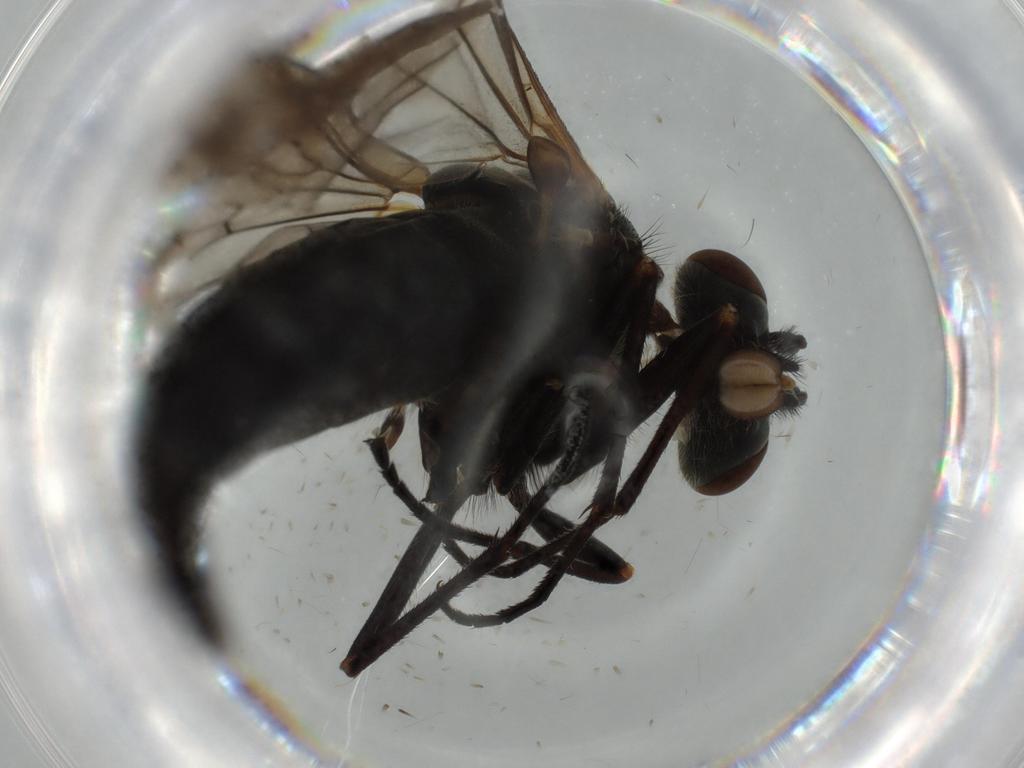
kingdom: Animalia
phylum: Arthropoda
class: Insecta
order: Diptera
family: Rhagionidae
